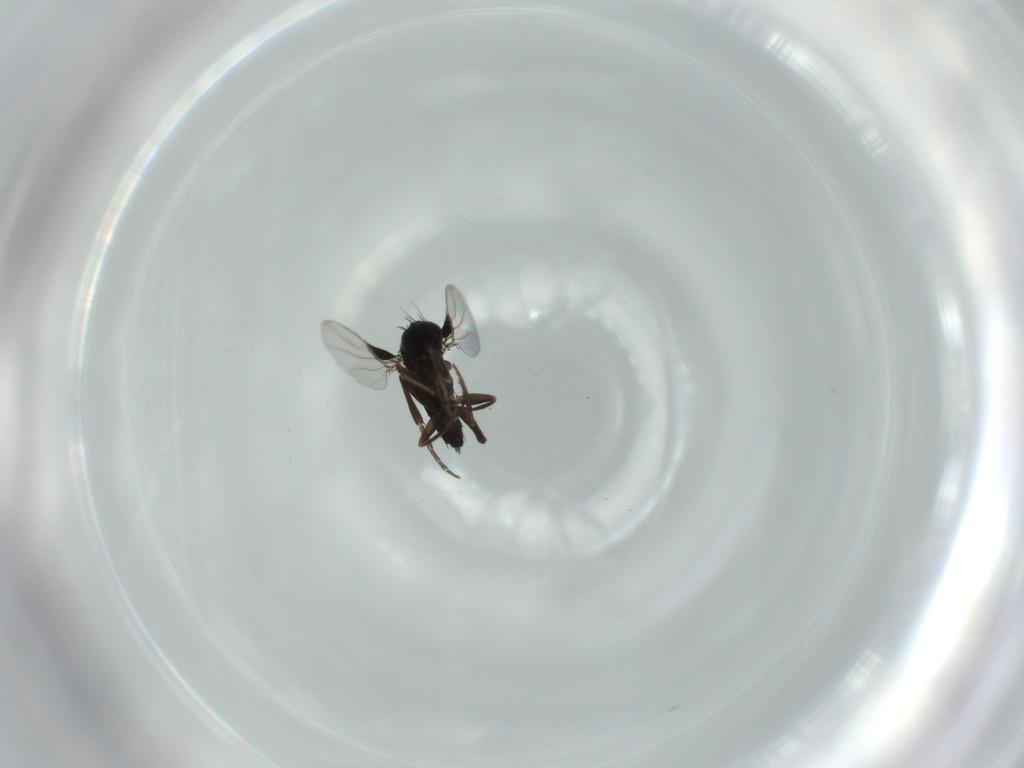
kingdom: Animalia
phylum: Arthropoda
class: Insecta
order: Diptera
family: Phoridae
